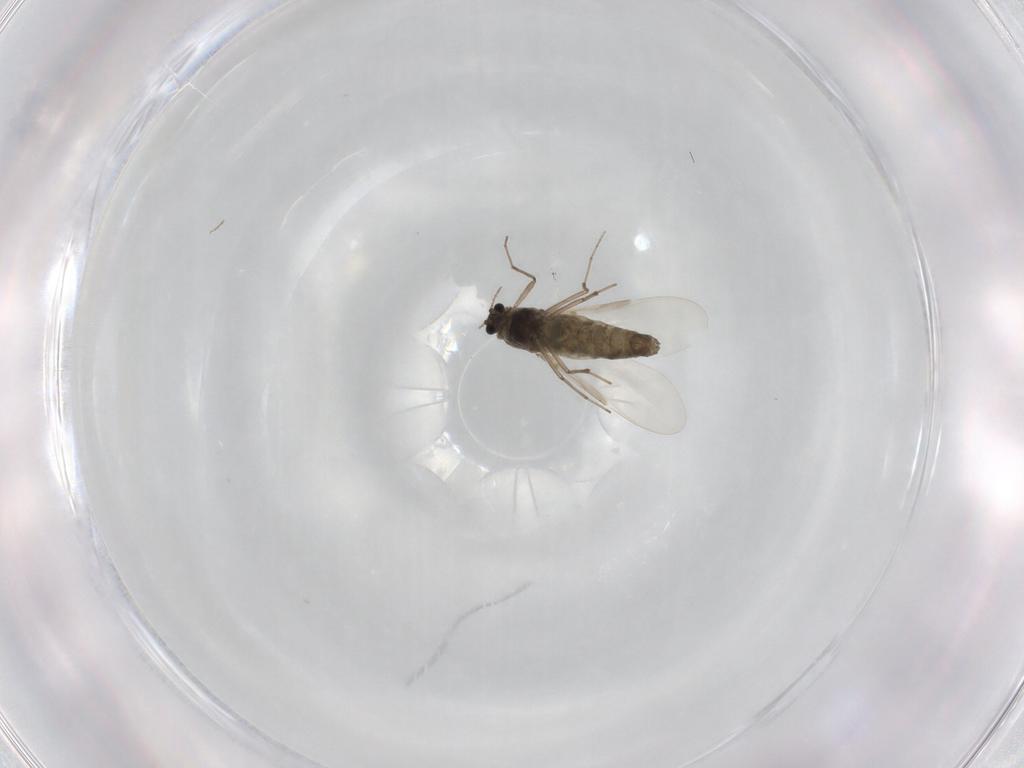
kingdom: Animalia
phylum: Arthropoda
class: Insecta
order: Diptera
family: Chironomidae
